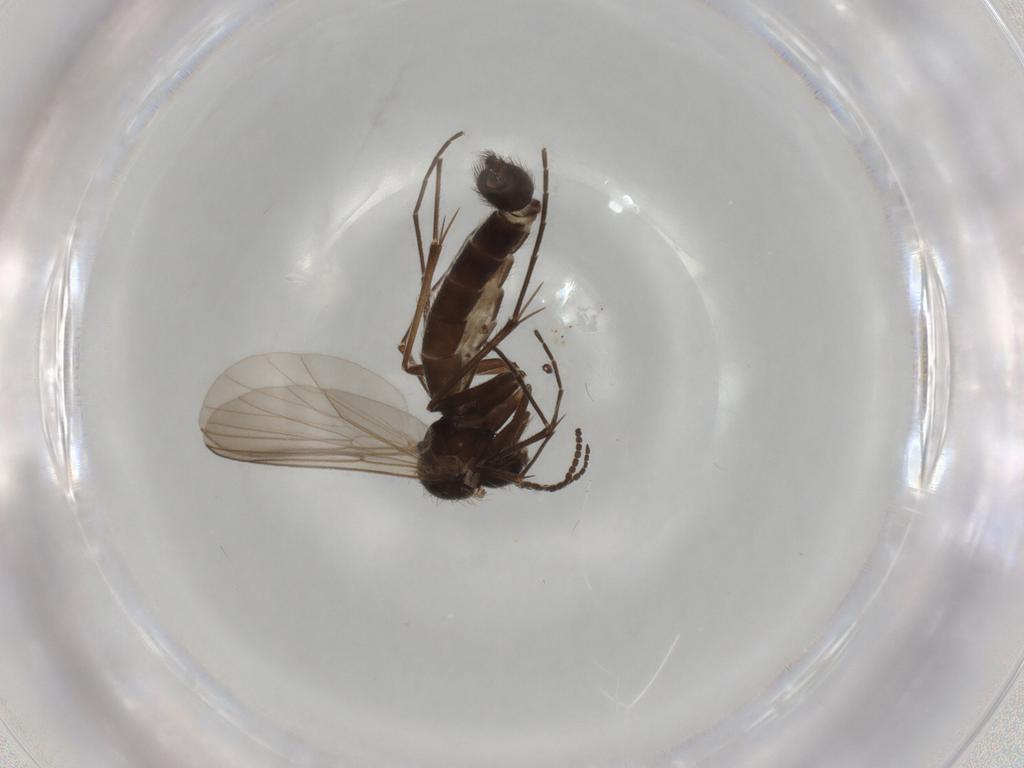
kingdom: Animalia
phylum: Arthropoda
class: Insecta
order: Diptera
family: Mycetophilidae
